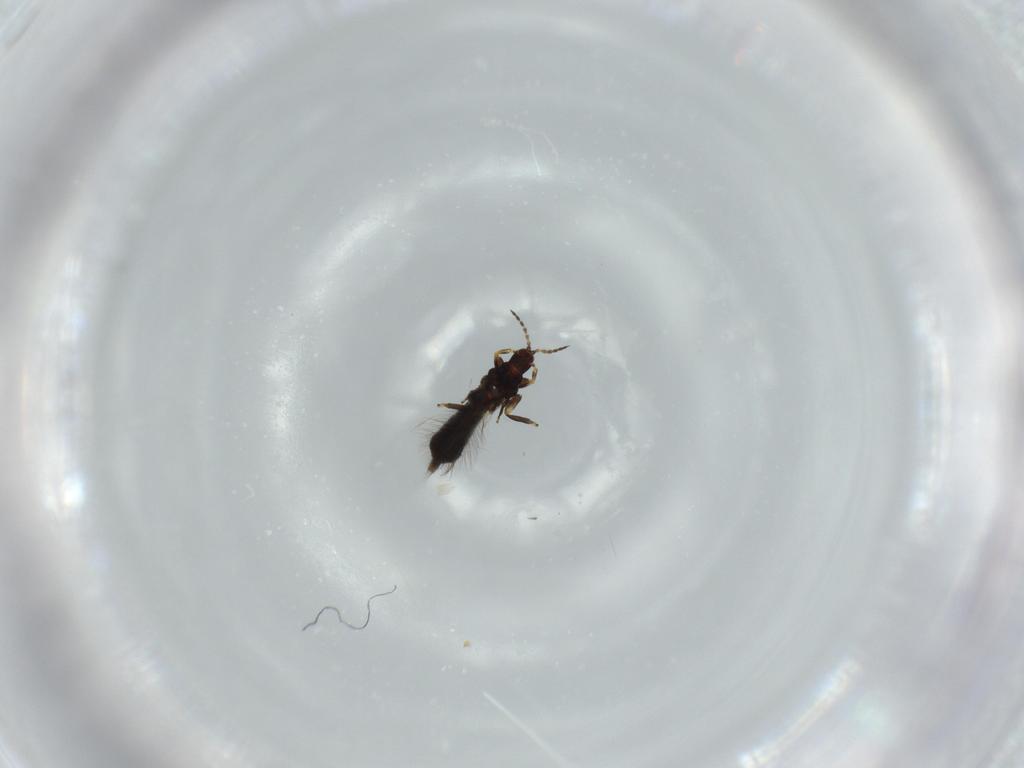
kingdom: Animalia
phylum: Arthropoda
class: Insecta
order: Thysanoptera
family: Phlaeothripidae
